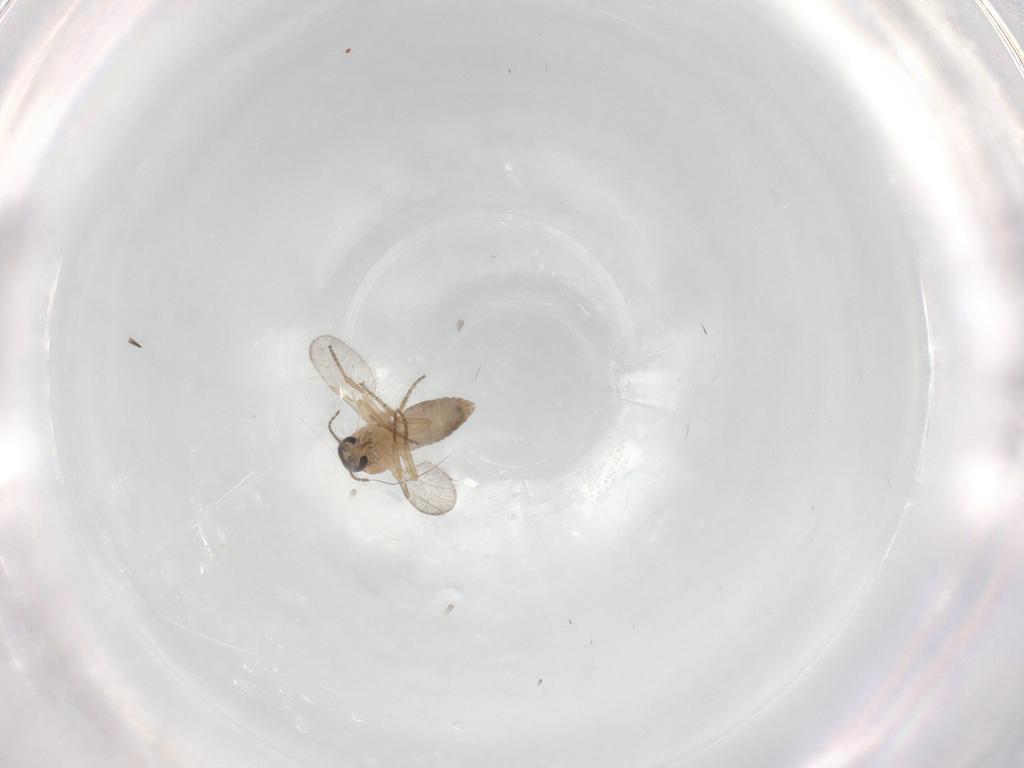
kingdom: Animalia
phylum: Arthropoda
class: Insecta
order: Diptera
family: Ceratopogonidae
